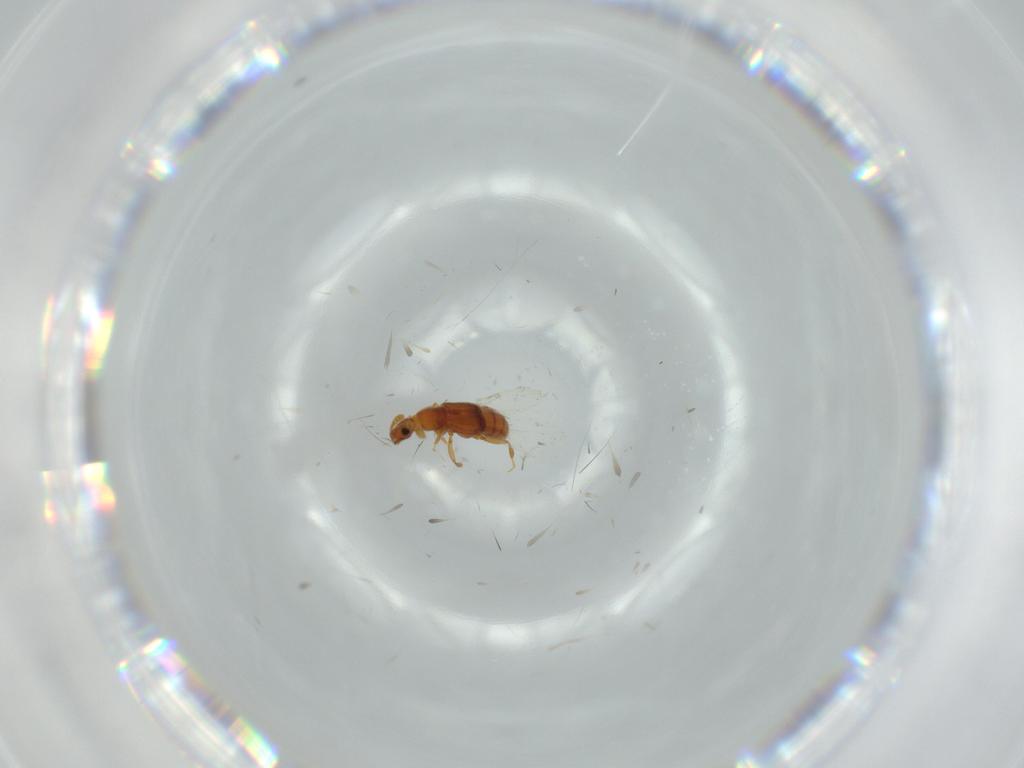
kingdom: Animalia
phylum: Arthropoda
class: Insecta
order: Coleoptera
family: Staphylinidae
